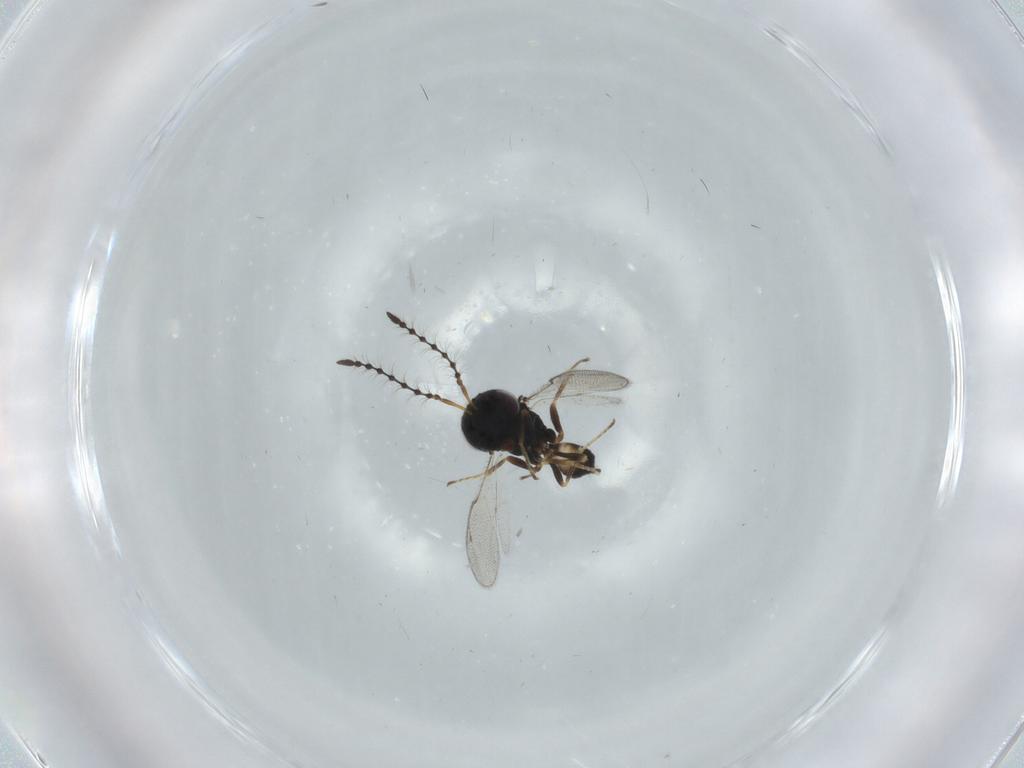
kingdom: Animalia
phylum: Arthropoda
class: Insecta
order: Hymenoptera
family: Pteromalidae
